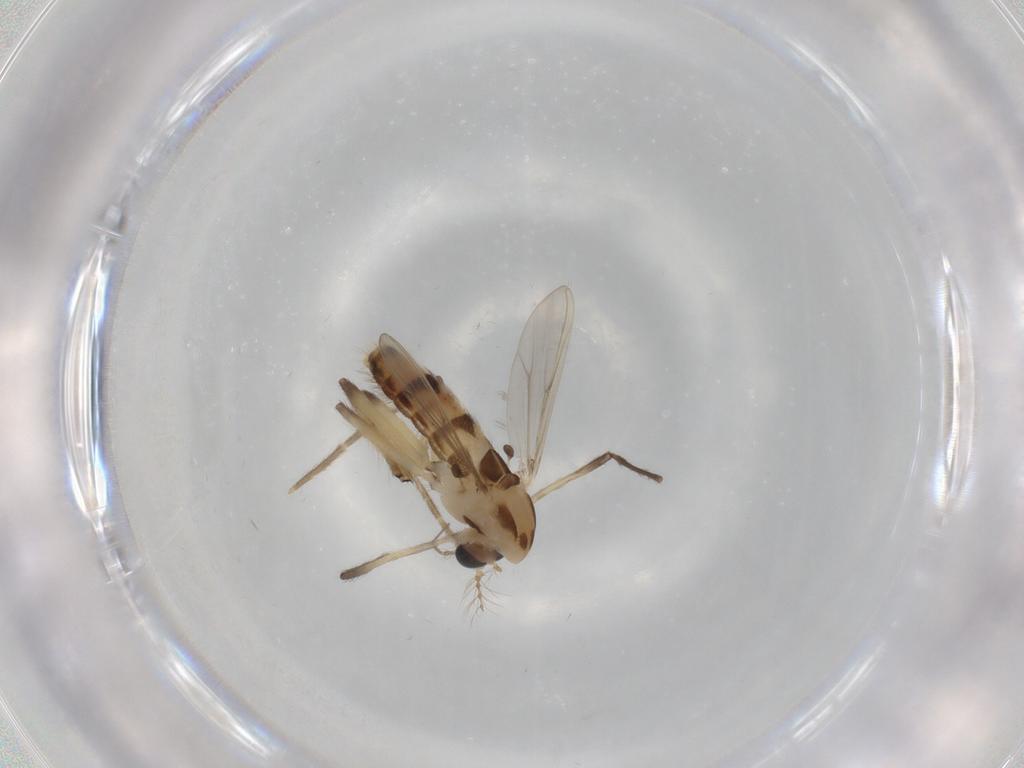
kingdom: Animalia
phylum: Arthropoda
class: Insecta
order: Diptera
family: Chironomidae
